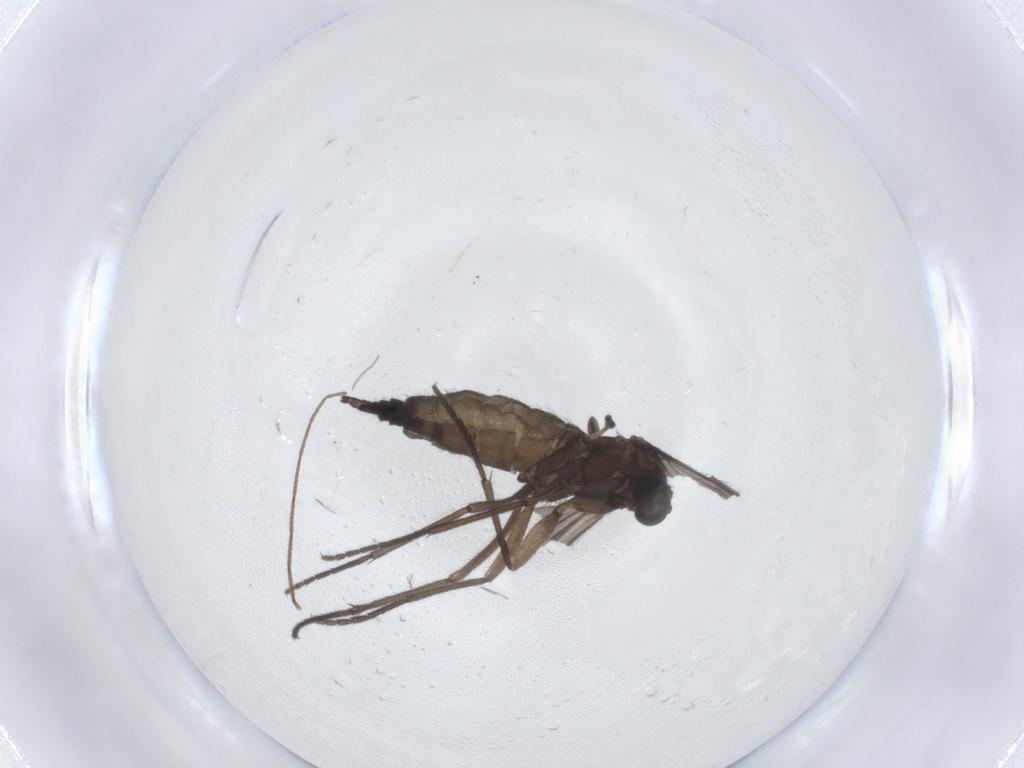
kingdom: Animalia
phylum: Arthropoda
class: Insecta
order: Diptera
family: Limoniidae
